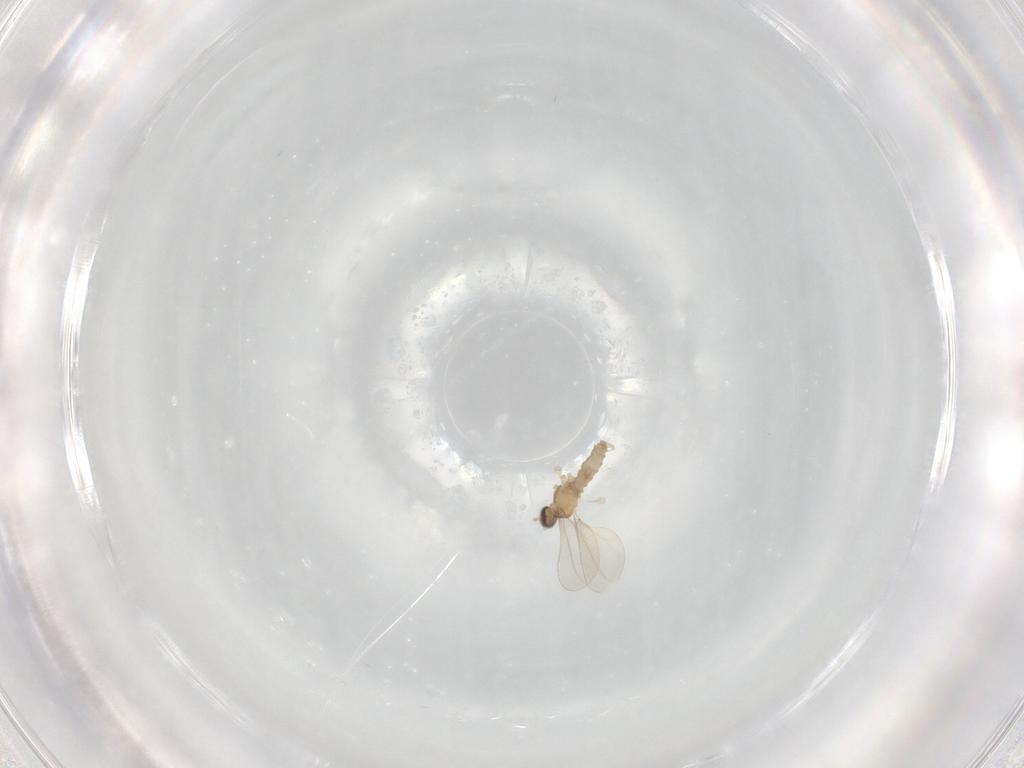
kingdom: Animalia
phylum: Arthropoda
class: Insecta
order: Diptera
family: Cecidomyiidae
